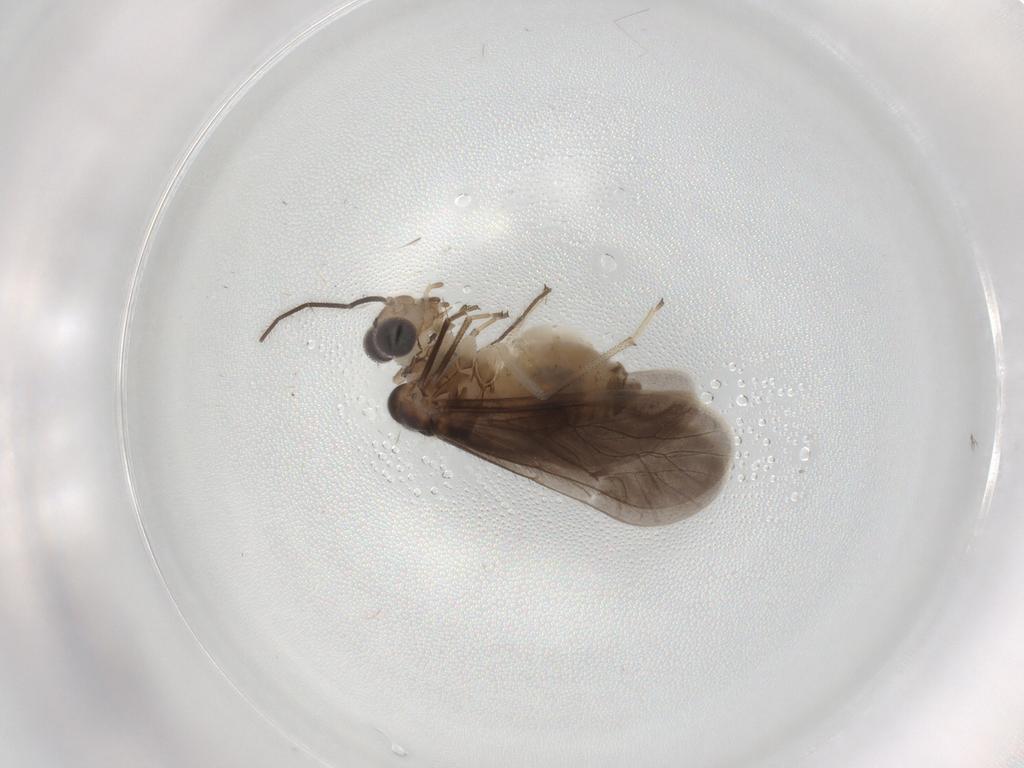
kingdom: Animalia
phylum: Arthropoda
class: Insecta
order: Psocodea
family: Caeciliusidae
